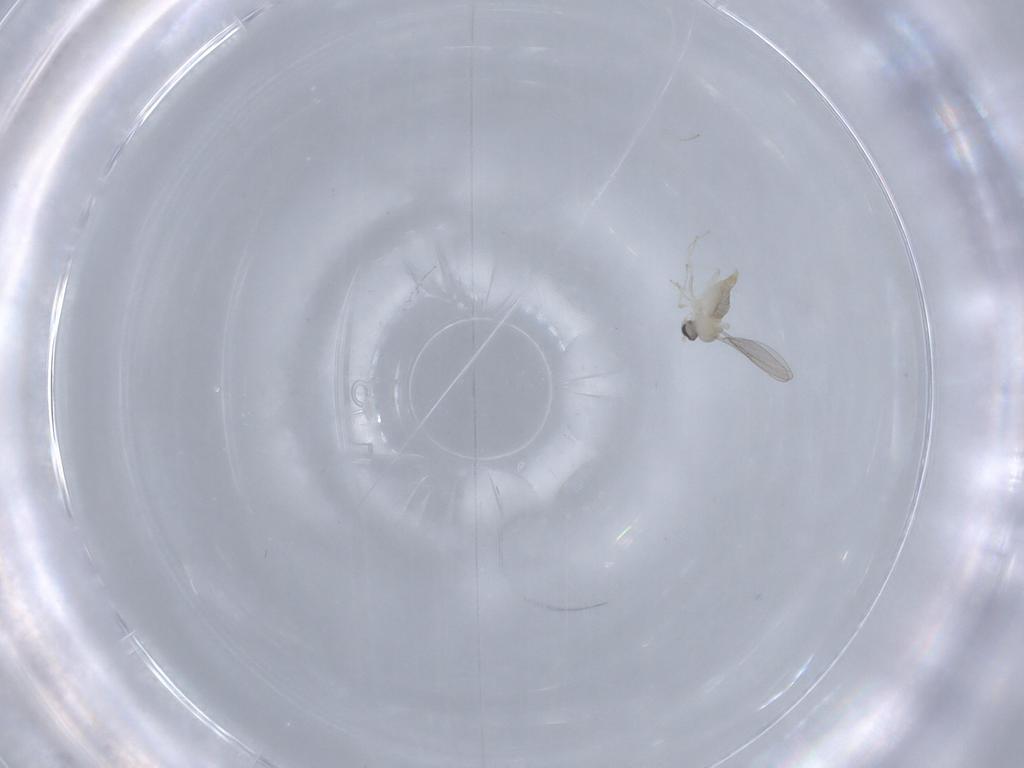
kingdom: Animalia
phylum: Arthropoda
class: Insecta
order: Diptera
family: Cecidomyiidae
